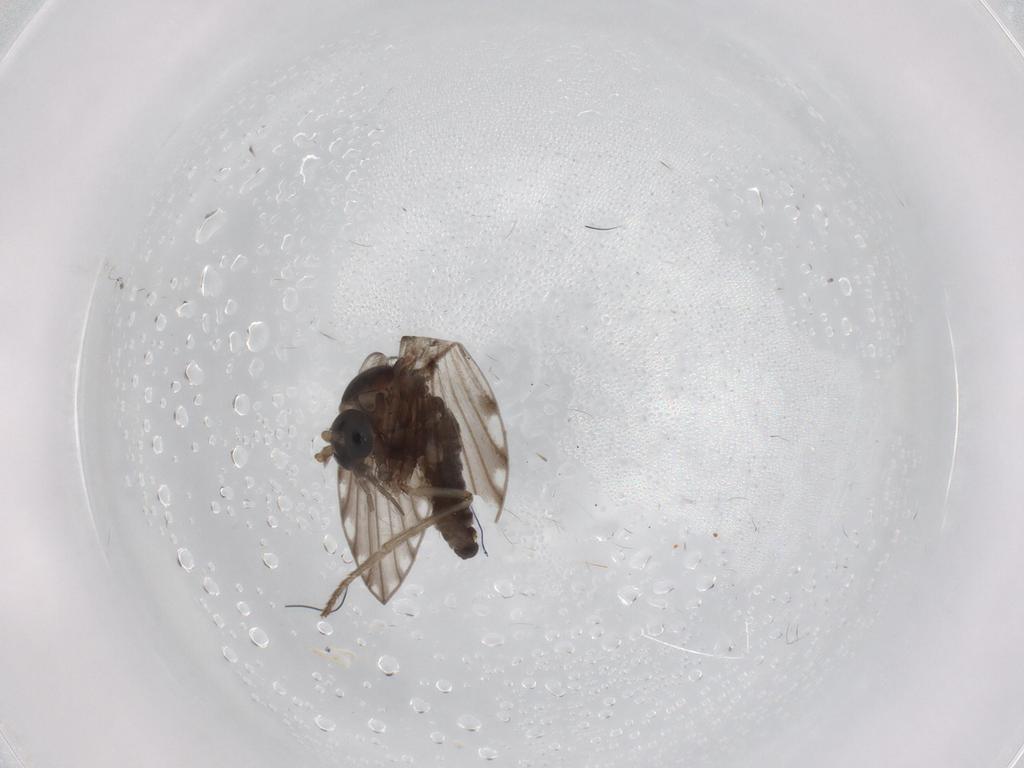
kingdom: Animalia
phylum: Arthropoda
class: Insecta
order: Diptera
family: Psychodidae
